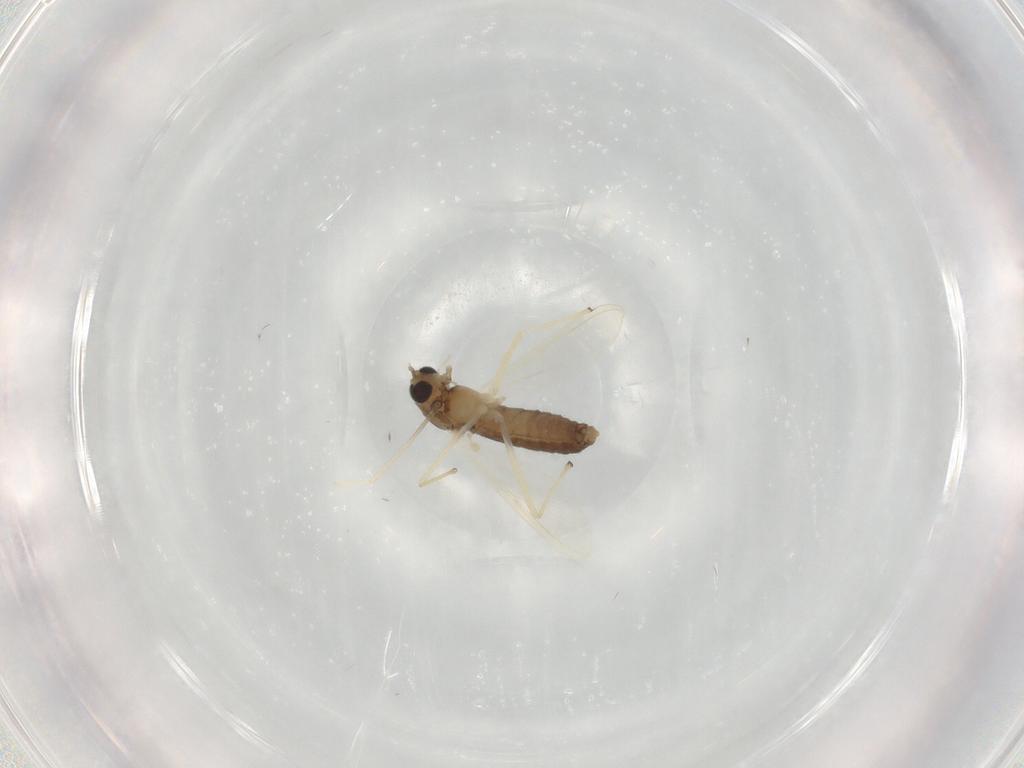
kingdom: Animalia
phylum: Arthropoda
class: Insecta
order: Diptera
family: Chironomidae
